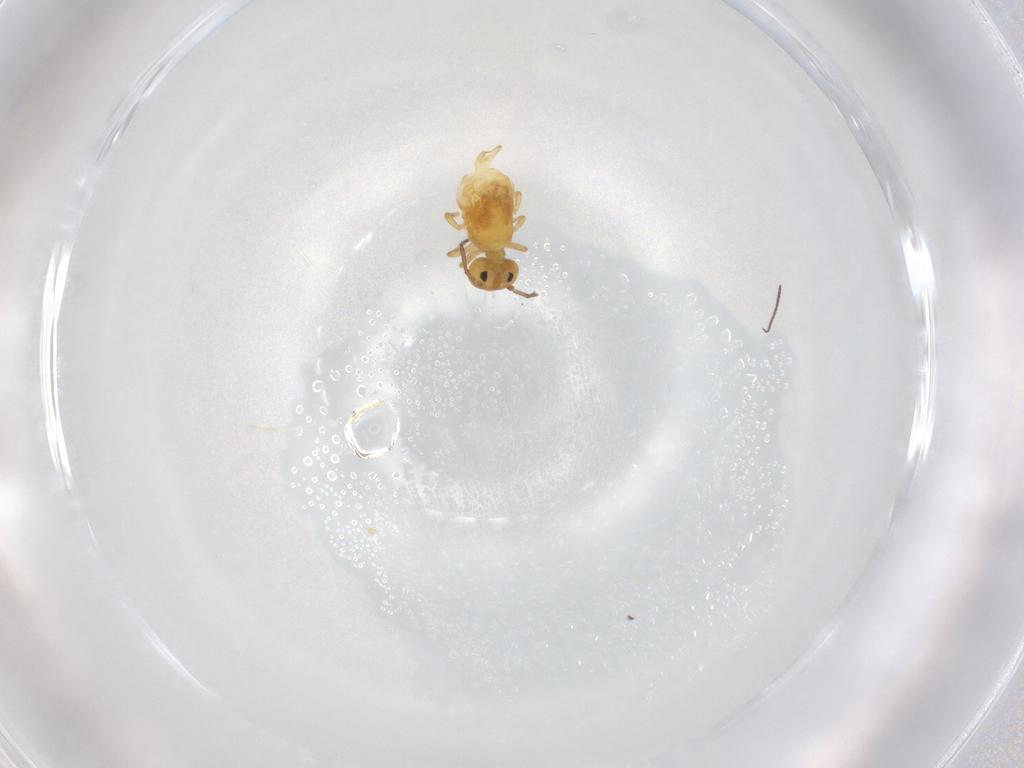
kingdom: Animalia
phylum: Arthropoda
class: Collembola
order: Symphypleona
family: Bourletiellidae
